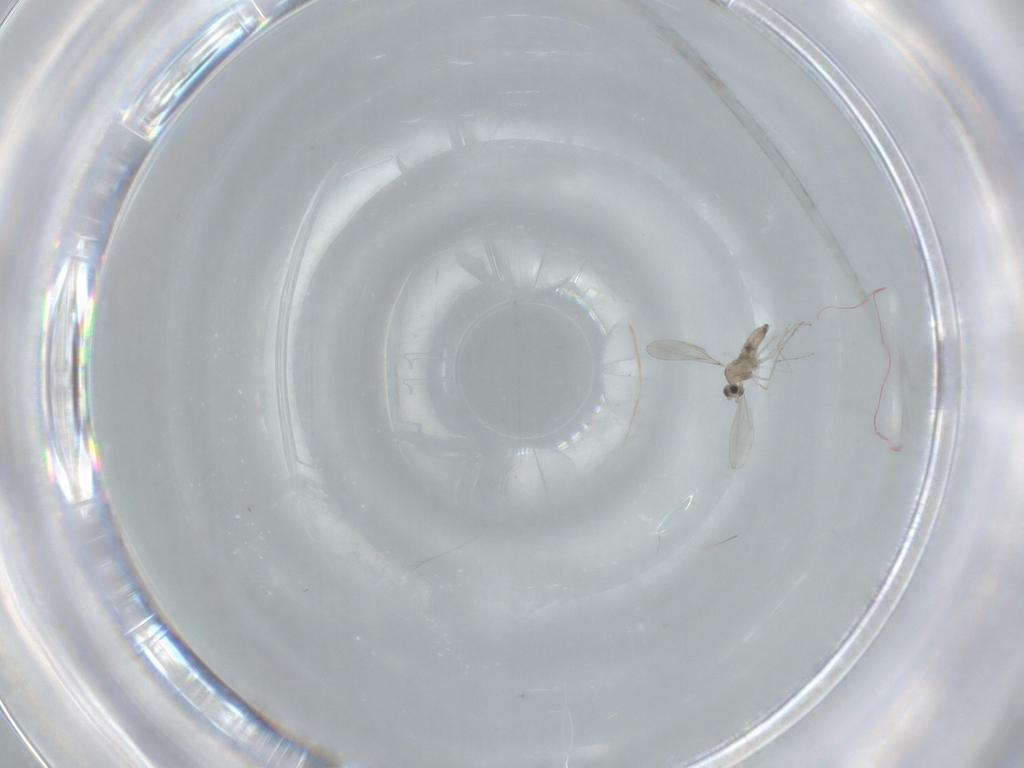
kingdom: Animalia
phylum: Arthropoda
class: Insecta
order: Diptera
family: Cecidomyiidae
